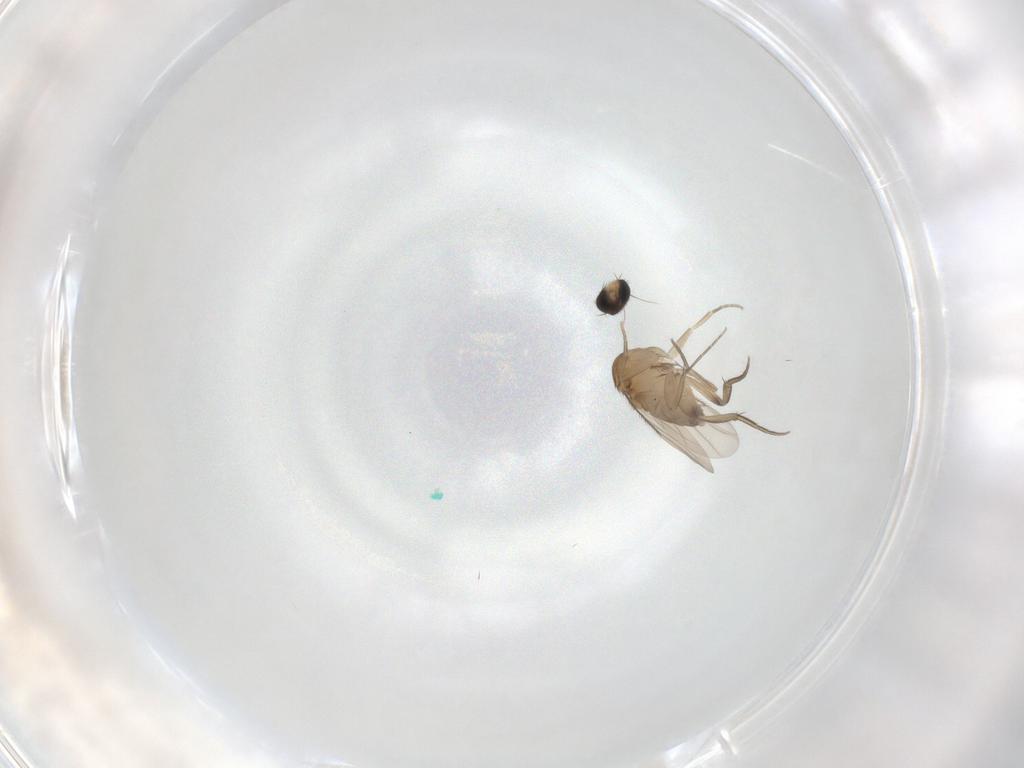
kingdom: Animalia
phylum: Arthropoda
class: Insecta
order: Diptera
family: Phoridae
